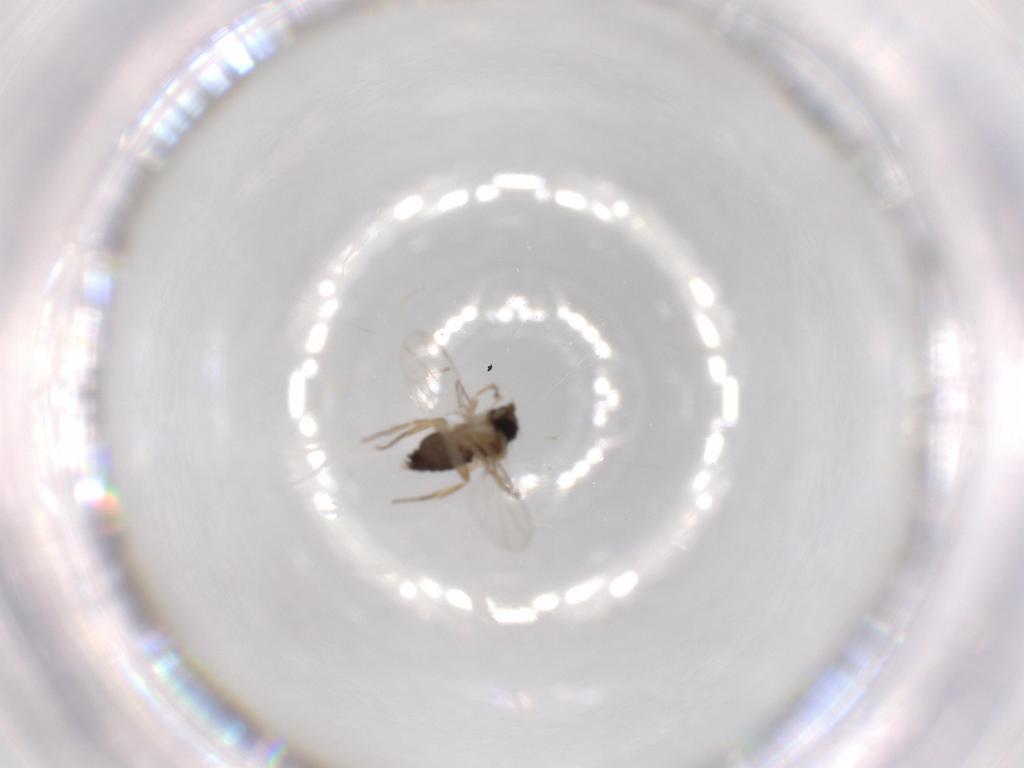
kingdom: Animalia
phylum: Arthropoda
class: Insecta
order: Diptera
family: Phoridae
